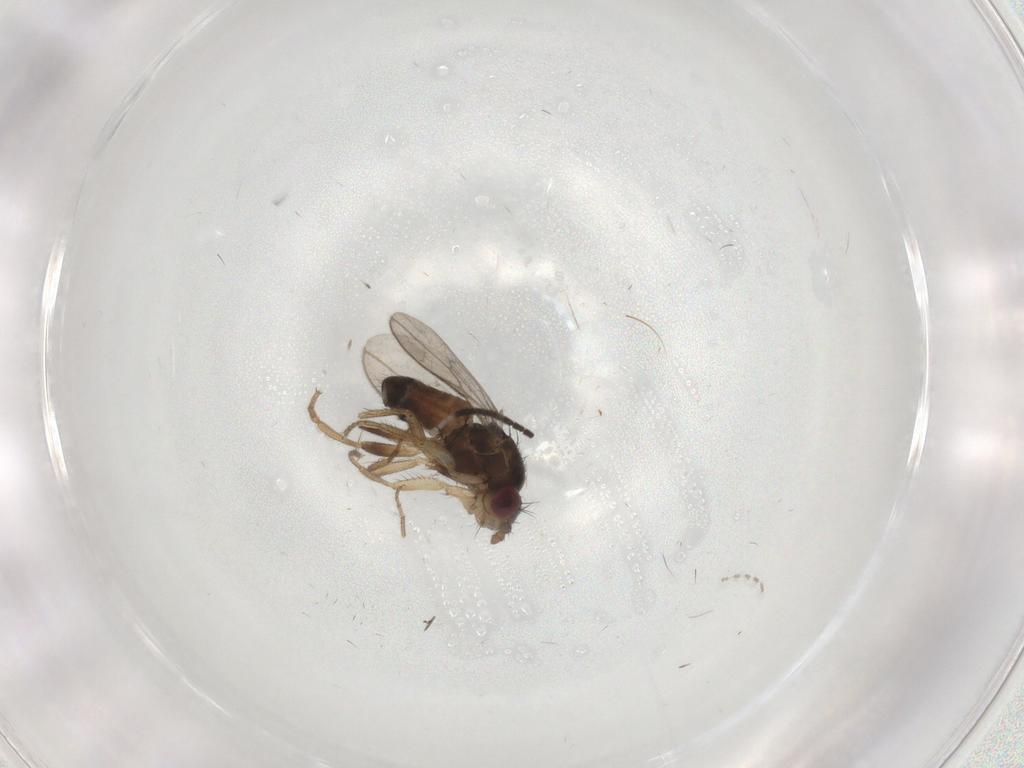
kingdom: Animalia
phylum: Arthropoda
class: Insecta
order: Diptera
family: Cecidomyiidae
